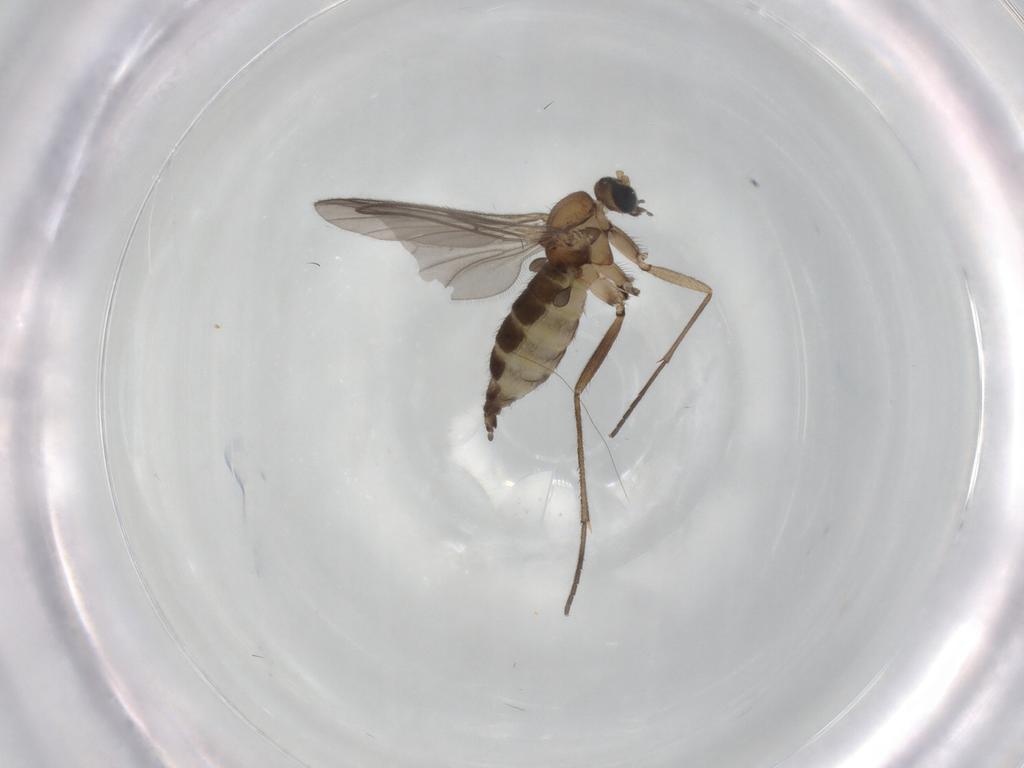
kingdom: Animalia
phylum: Arthropoda
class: Insecta
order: Diptera
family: Sciaridae
